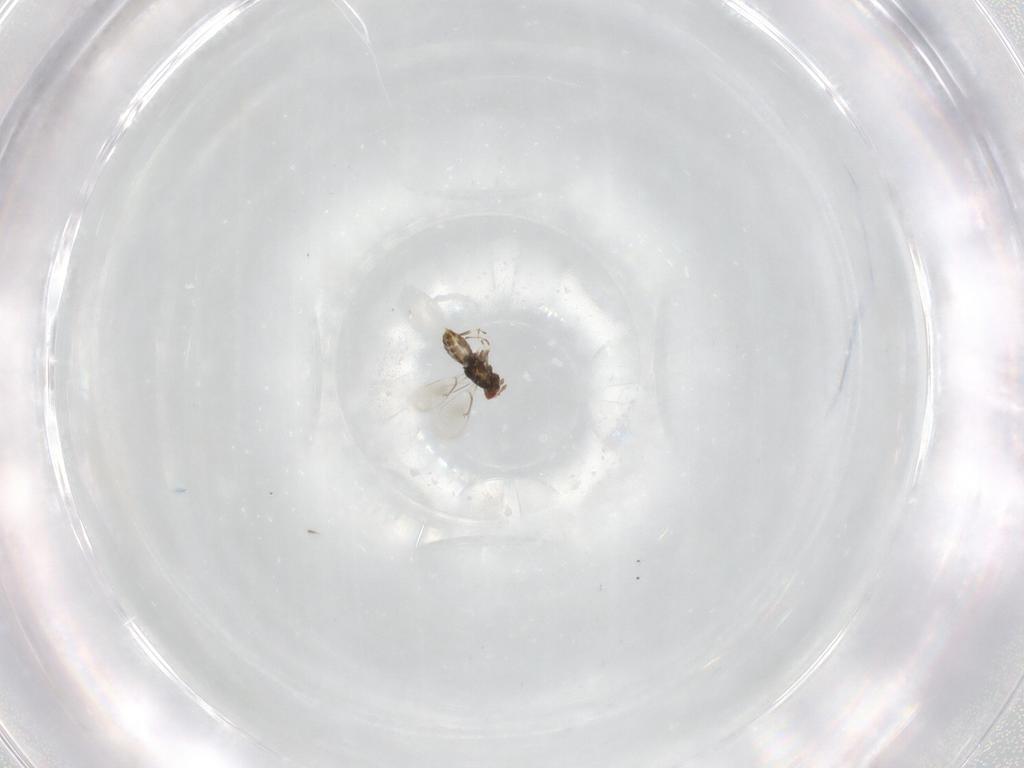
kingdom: Animalia
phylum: Arthropoda
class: Insecta
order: Hymenoptera
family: Eulophidae
